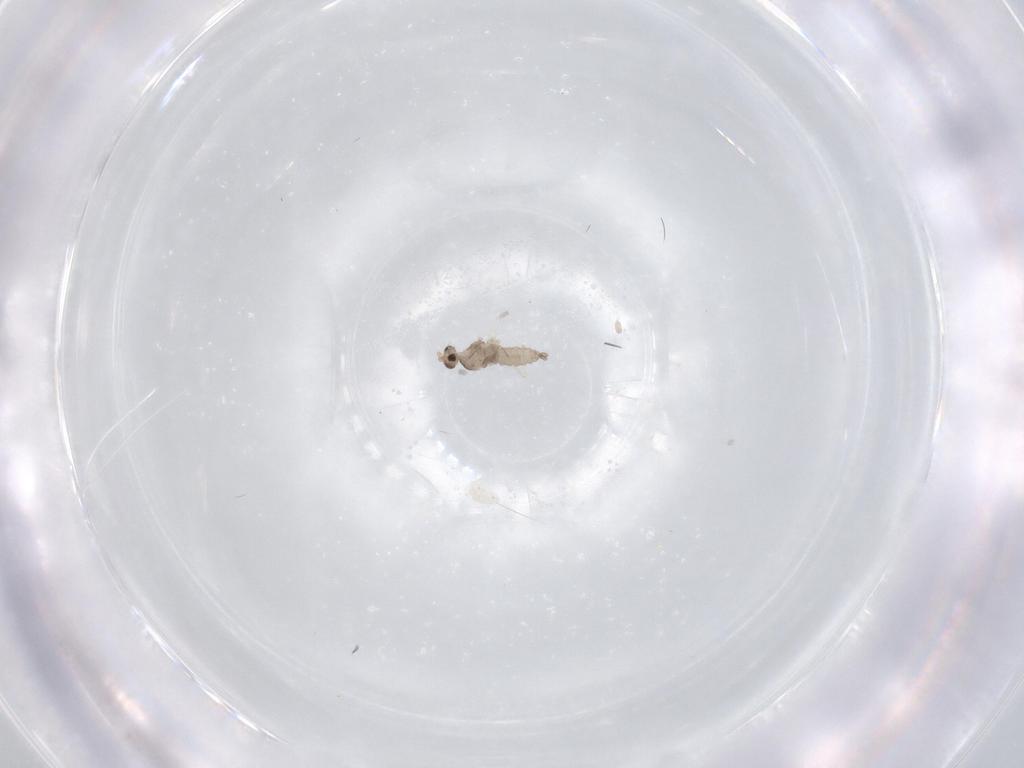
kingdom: Animalia
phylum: Arthropoda
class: Insecta
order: Diptera
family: Cecidomyiidae
